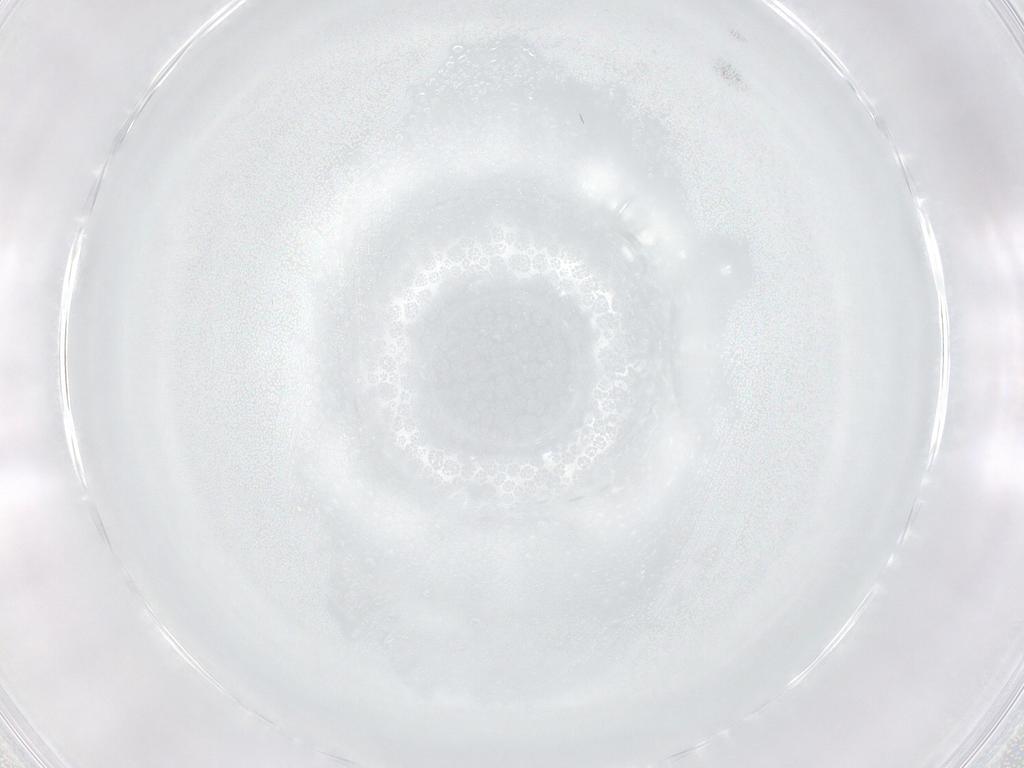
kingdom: Animalia
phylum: Arthropoda
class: Insecta
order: Diptera
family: Cecidomyiidae
